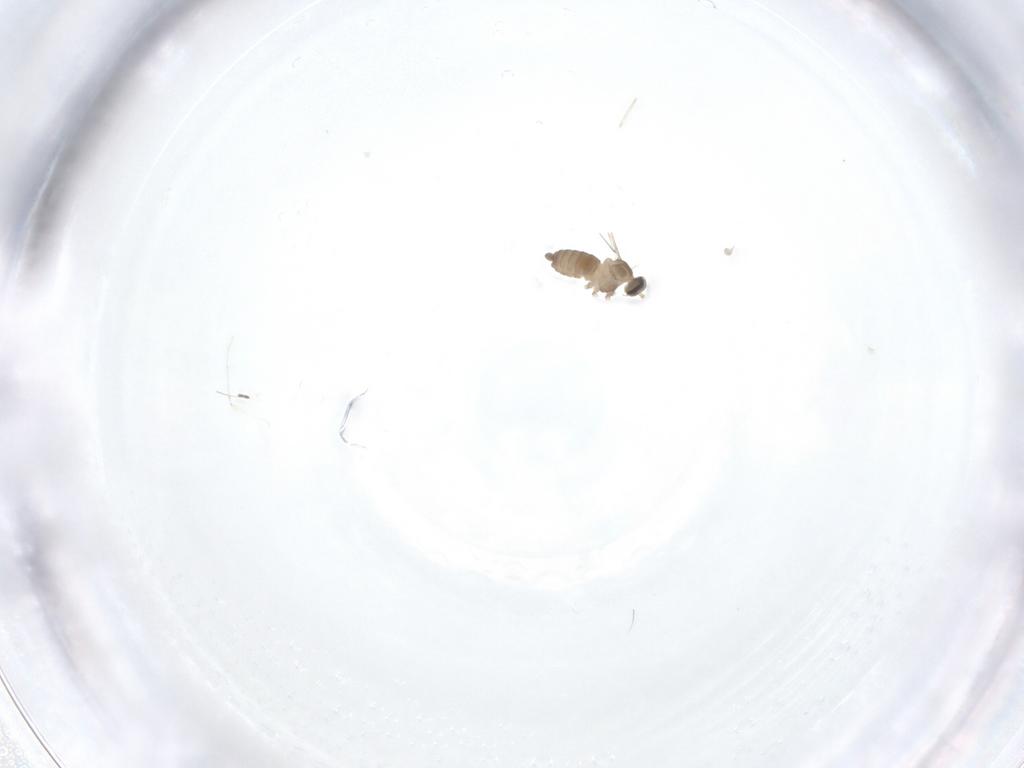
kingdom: Animalia
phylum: Arthropoda
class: Insecta
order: Diptera
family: Cecidomyiidae
